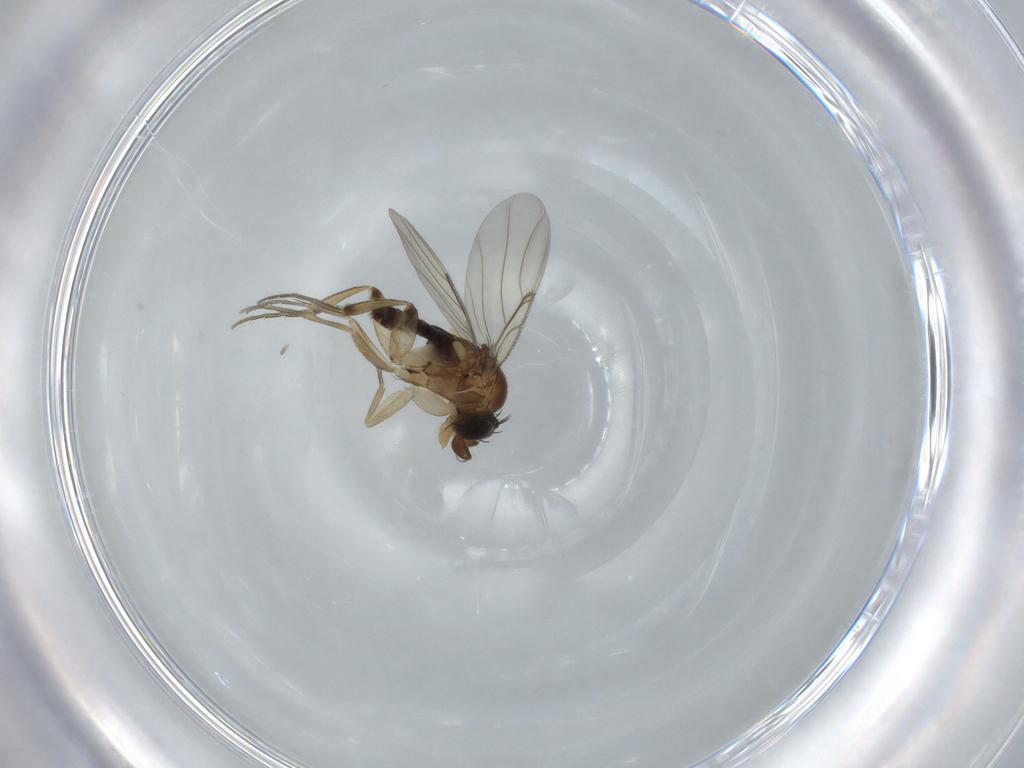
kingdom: Animalia
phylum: Arthropoda
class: Insecta
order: Diptera
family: Phoridae
